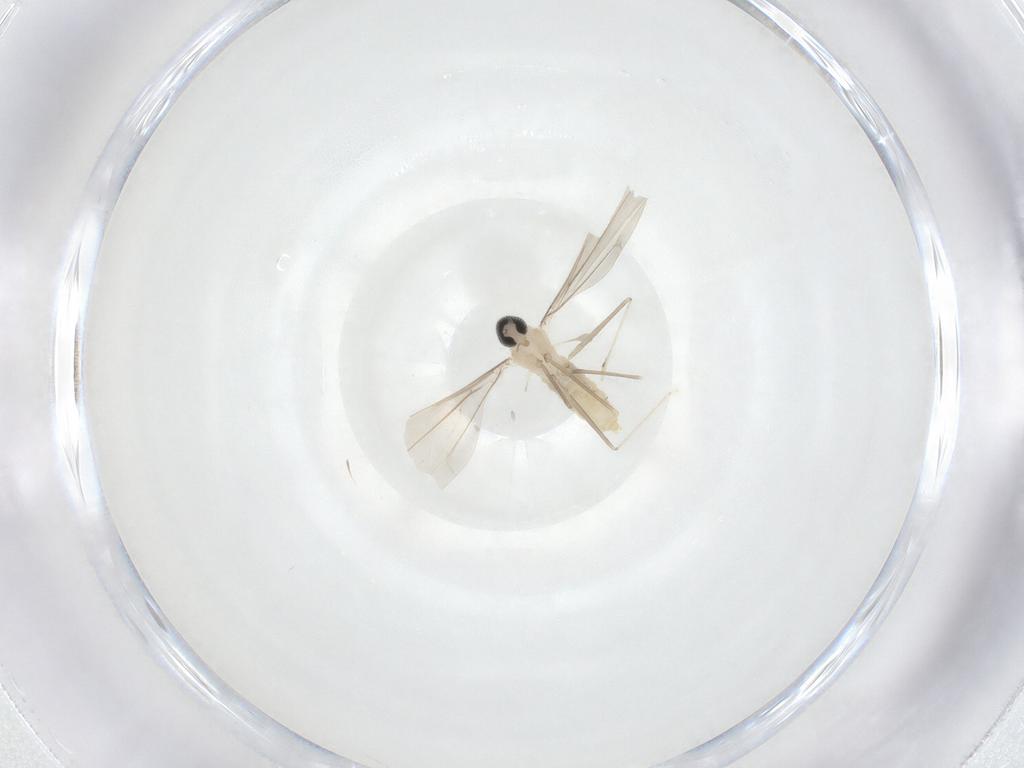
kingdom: Animalia
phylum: Arthropoda
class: Insecta
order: Diptera
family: Cecidomyiidae
